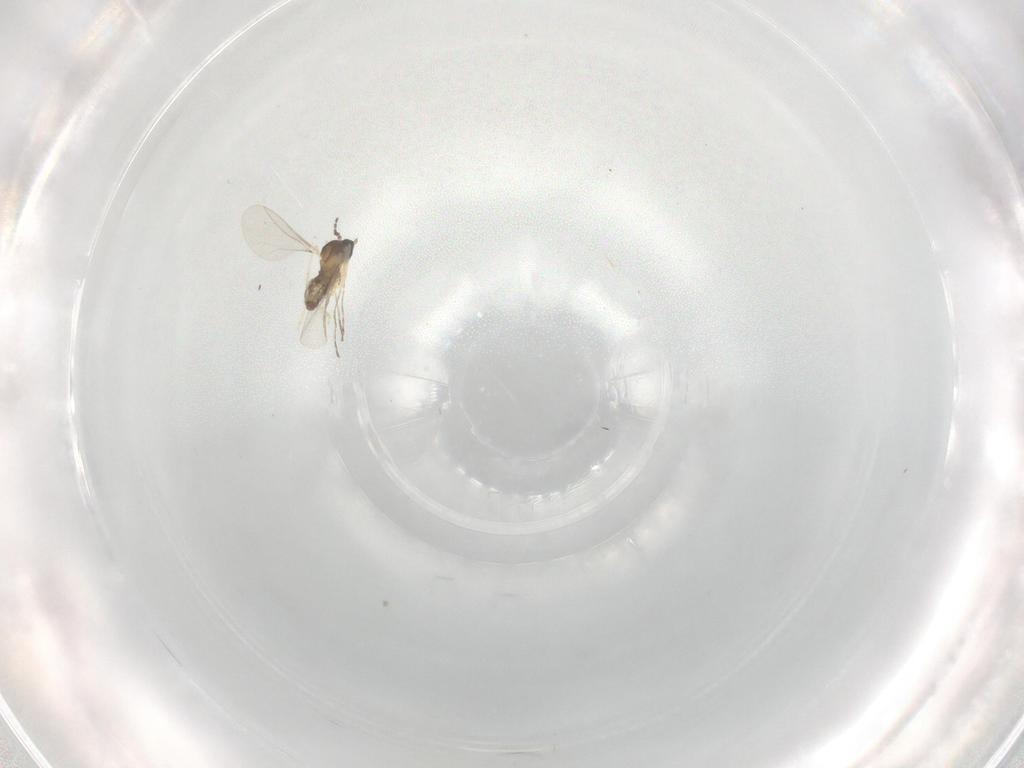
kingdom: Animalia
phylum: Arthropoda
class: Insecta
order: Diptera
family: Cecidomyiidae
